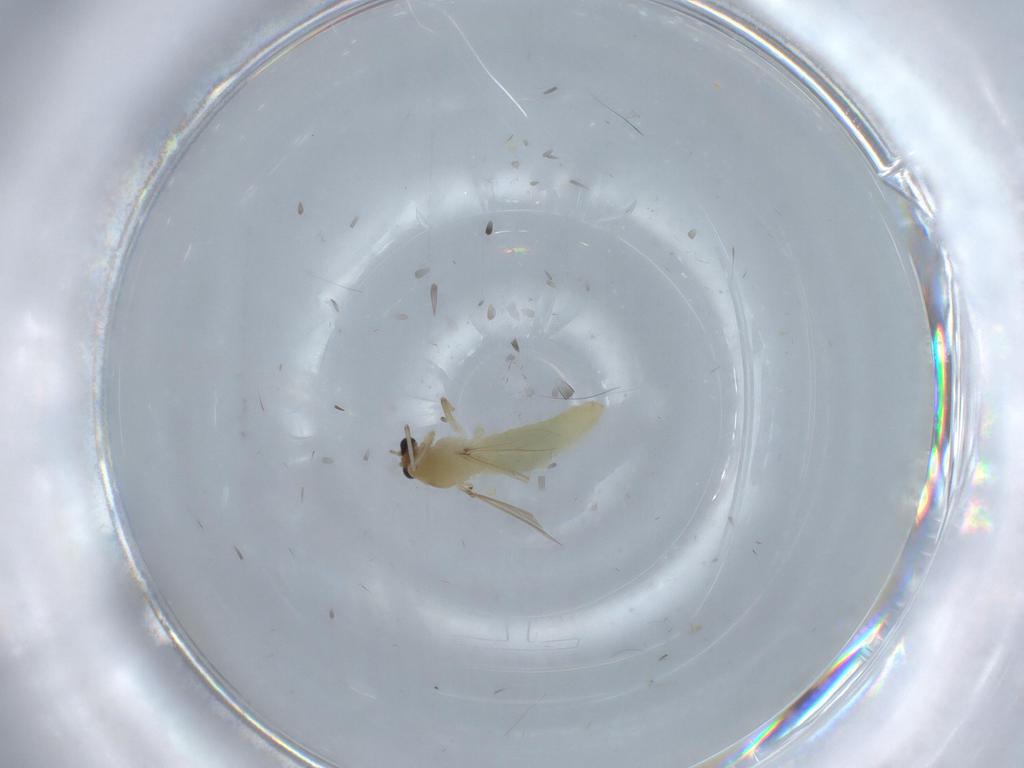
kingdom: Animalia
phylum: Arthropoda
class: Insecta
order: Diptera
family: Chironomidae
